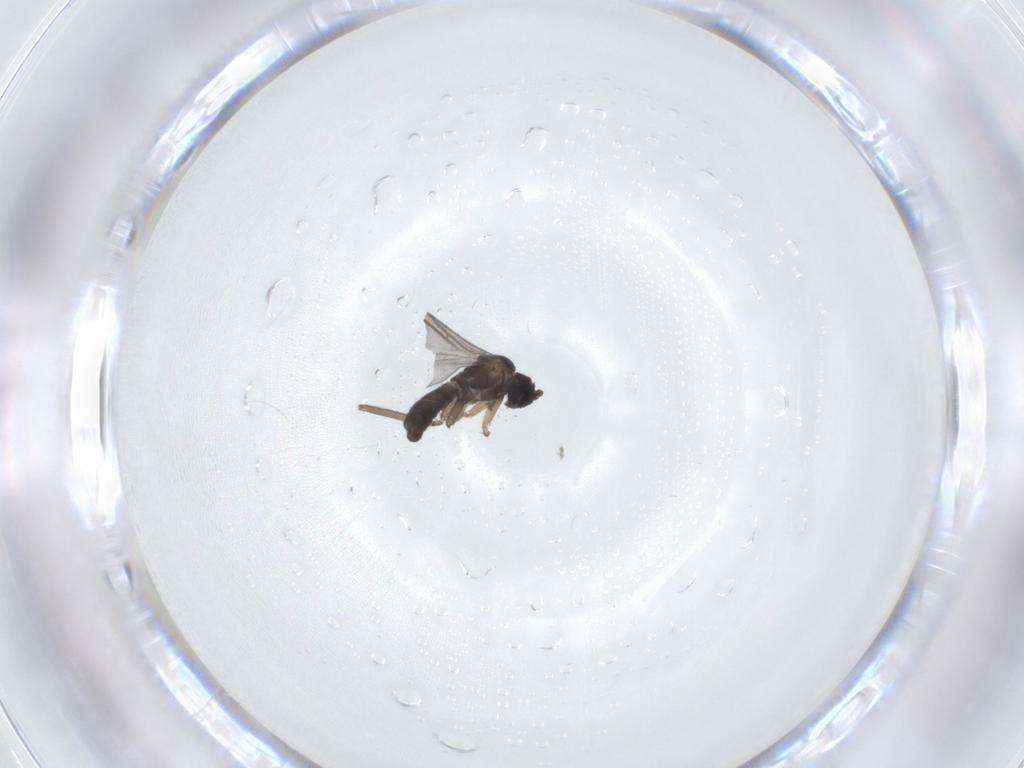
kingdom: Animalia
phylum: Arthropoda
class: Insecta
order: Diptera
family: Sciaridae
